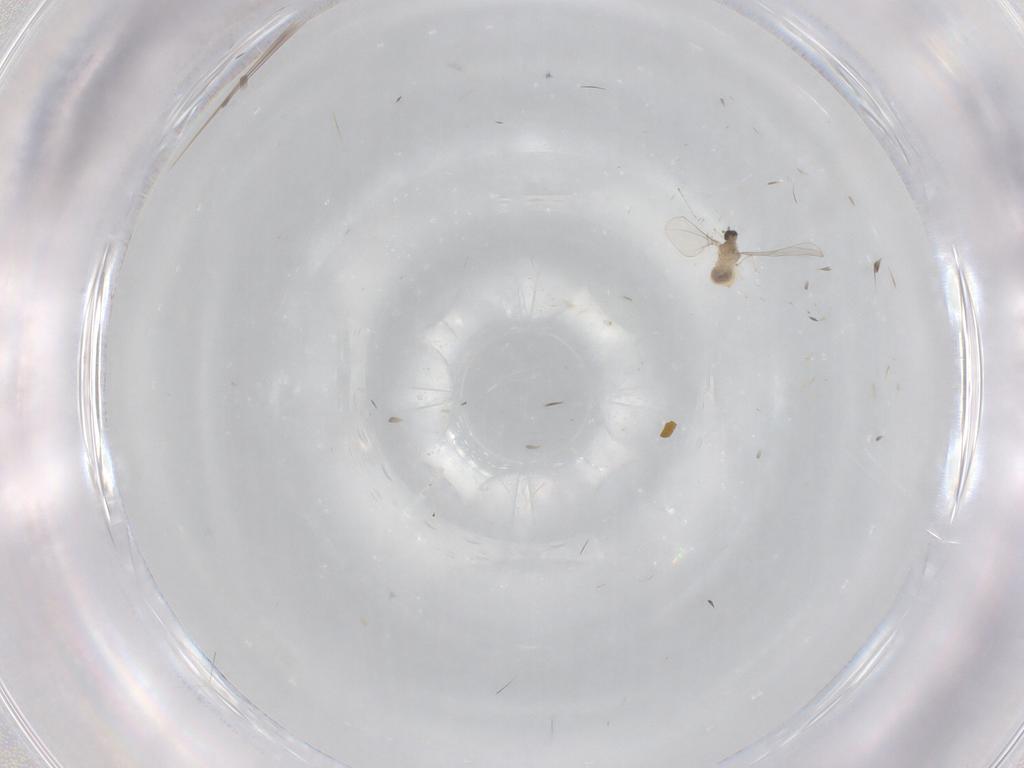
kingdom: Animalia
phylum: Arthropoda
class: Insecta
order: Diptera
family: Cecidomyiidae
